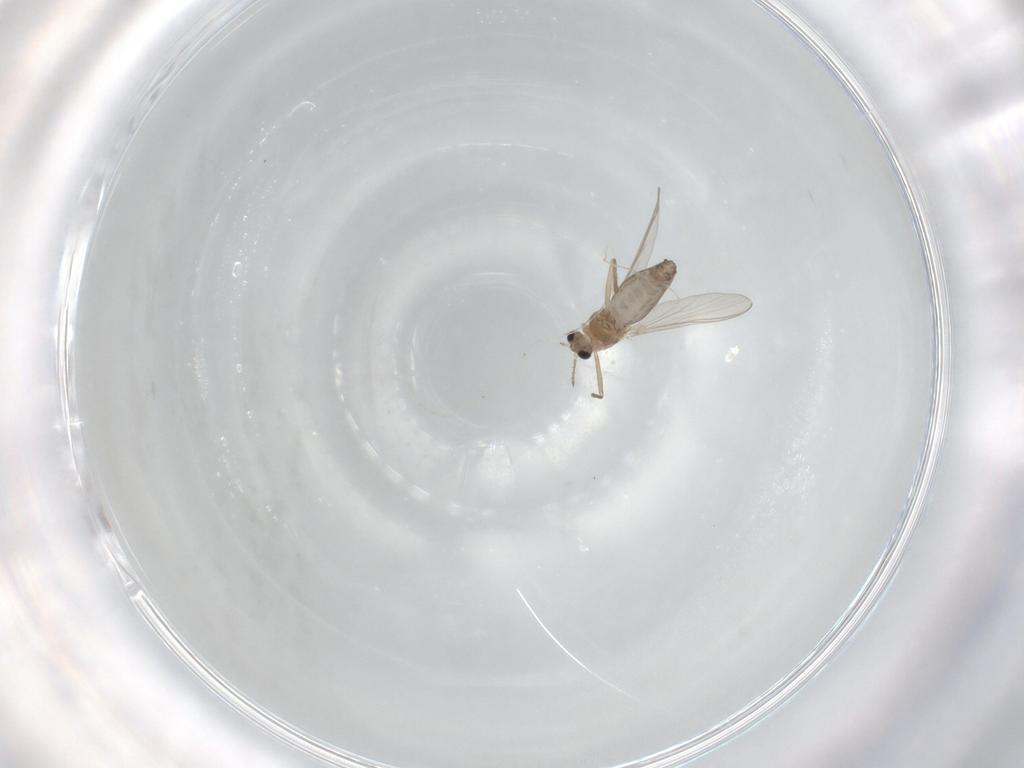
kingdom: Animalia
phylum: Arthropoda
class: Insecta
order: Diptera
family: Chironomidae
